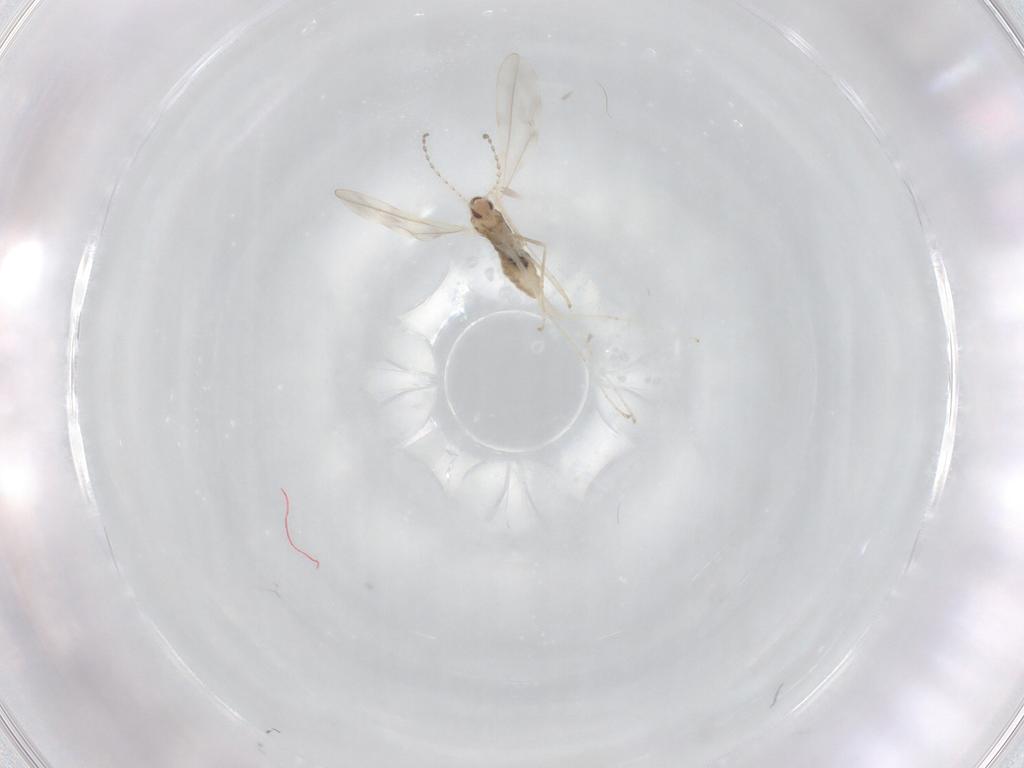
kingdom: Animalia
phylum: Arthropoda
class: Insecta
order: Diptera
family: Cecidomyiidae
